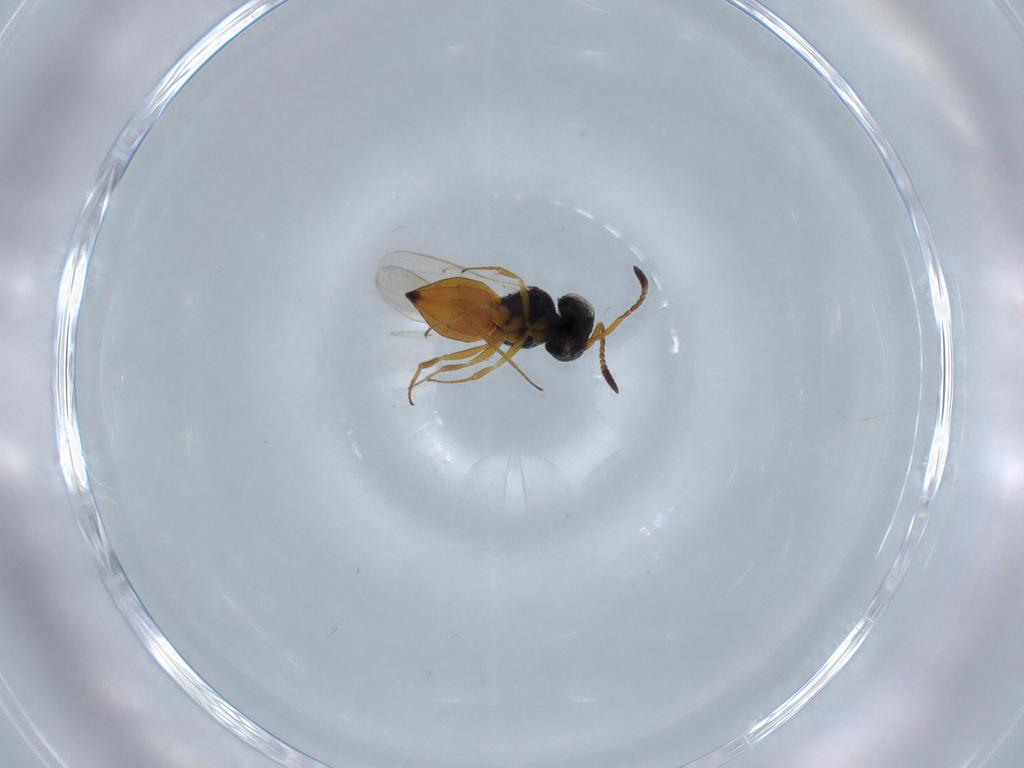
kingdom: Animalia
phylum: Arthropoda
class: Insecta
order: Hymenoptera
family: Scelionidae
